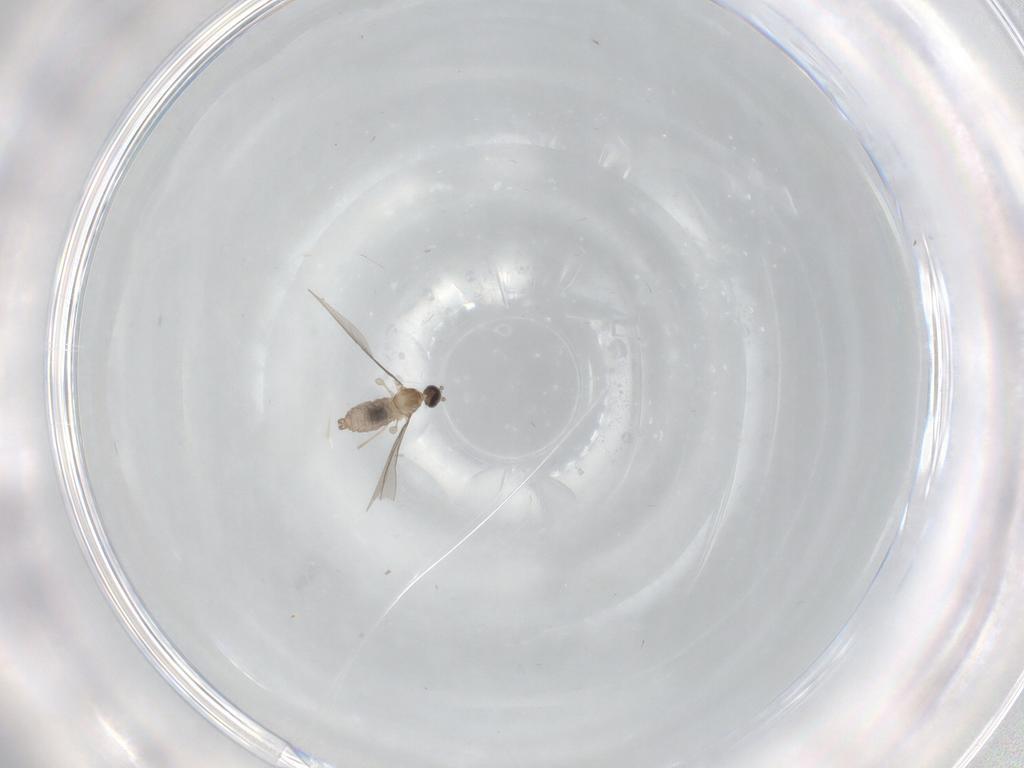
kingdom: Animalia
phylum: Arthropoda
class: Insecta
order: Diptera
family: Cecidomyiidae
